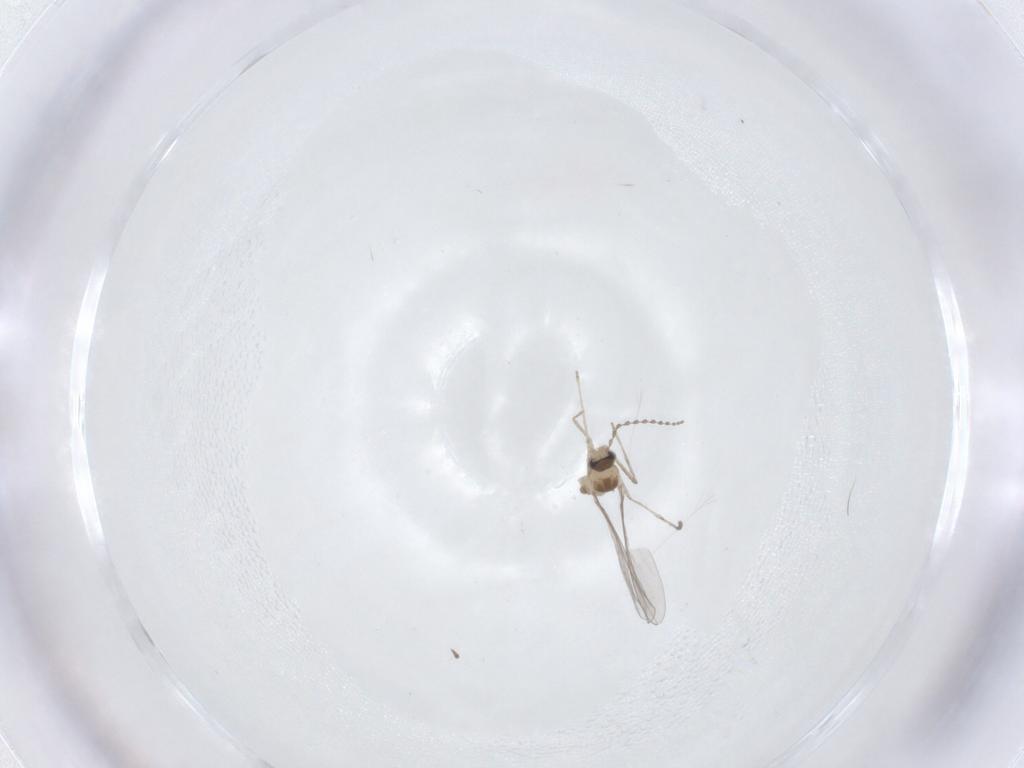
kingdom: Animalia
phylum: Arthropoda
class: Insecta
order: Diptera
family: Cecidomyiidae
